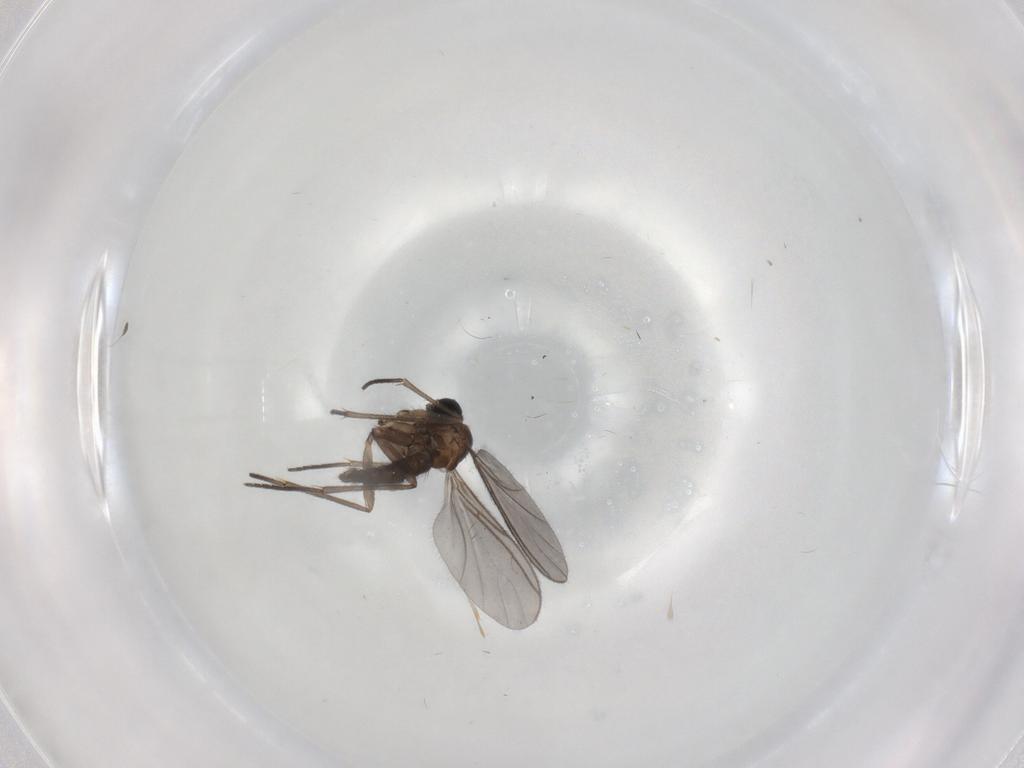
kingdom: Animalia
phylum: Arthropoda
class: Insecta
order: Diptera
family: Sciaridae
